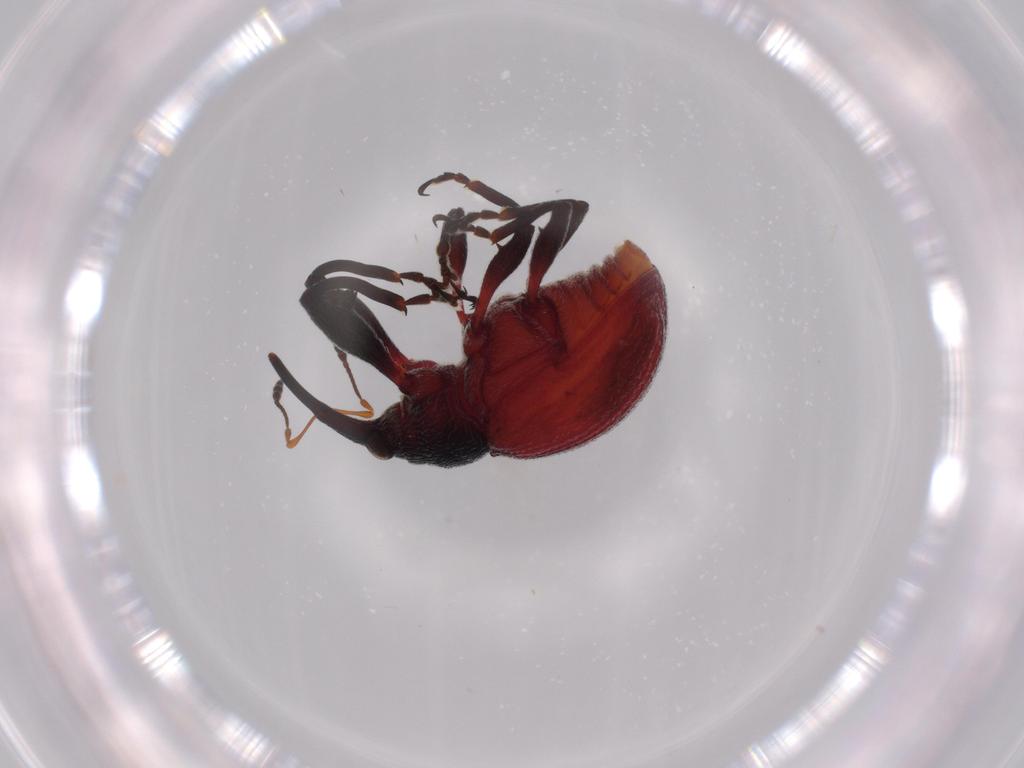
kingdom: Animalia
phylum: Arthropoda
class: Insecta
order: Coleoptera
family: Curculionidae
